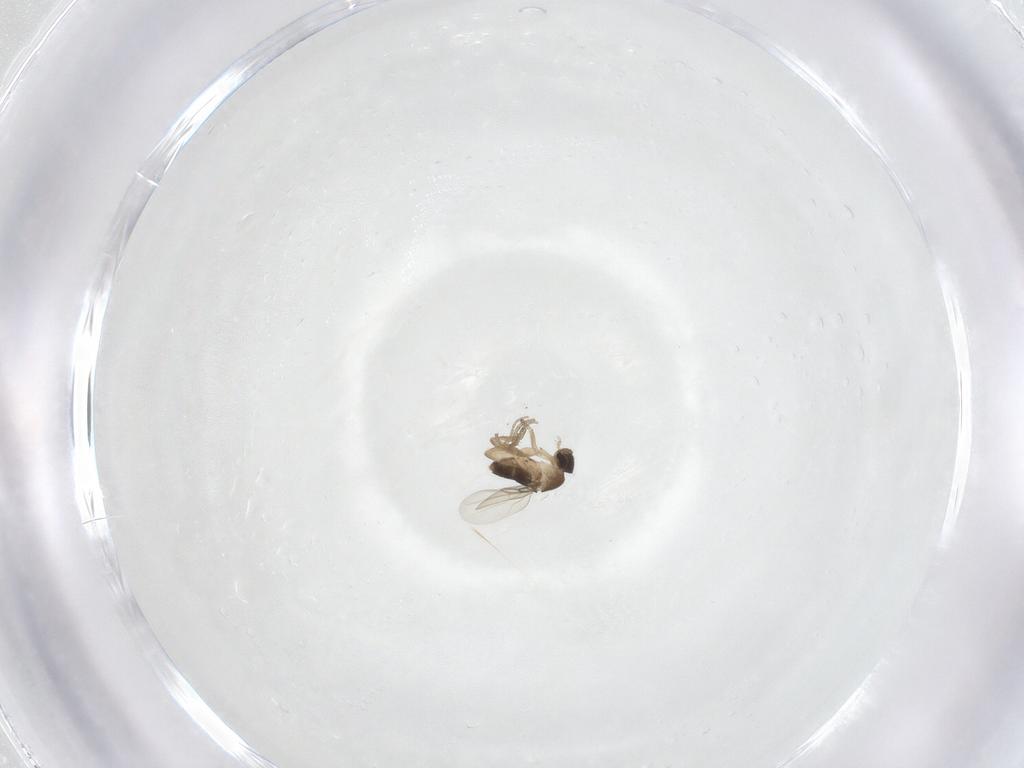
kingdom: Animalia
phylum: Arthropoda
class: Insecta
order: Diptera
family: Phoridae
